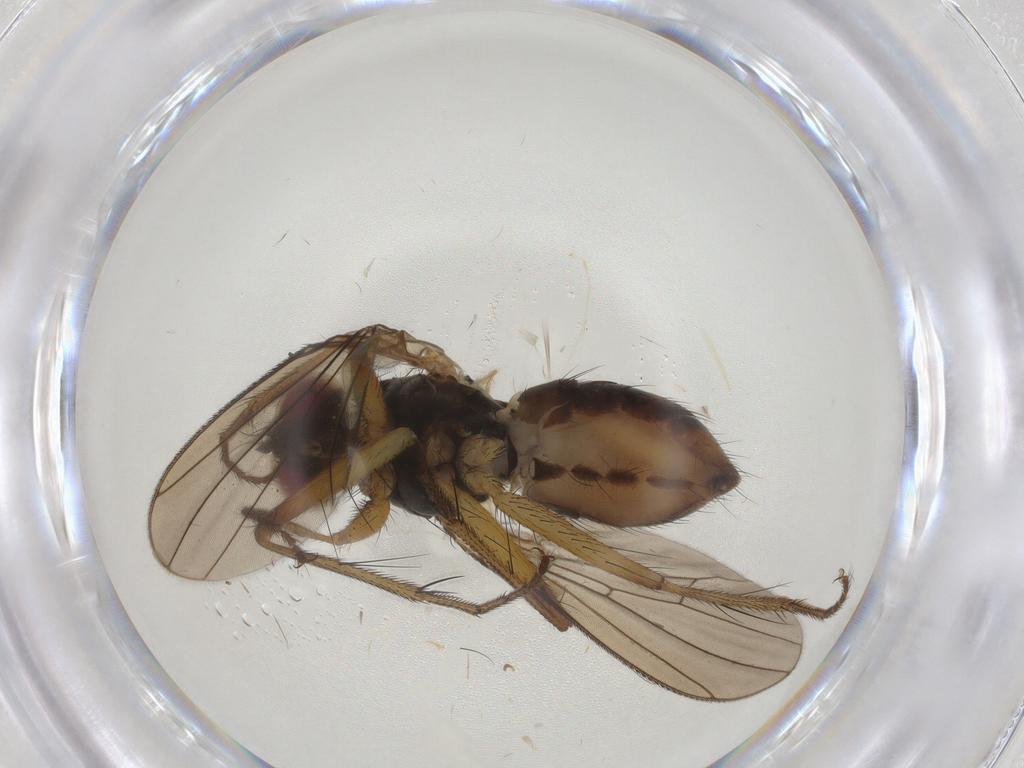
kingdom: Animalia
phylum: Arthropoda
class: Insecta
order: Diptera
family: Anthomyiidae
